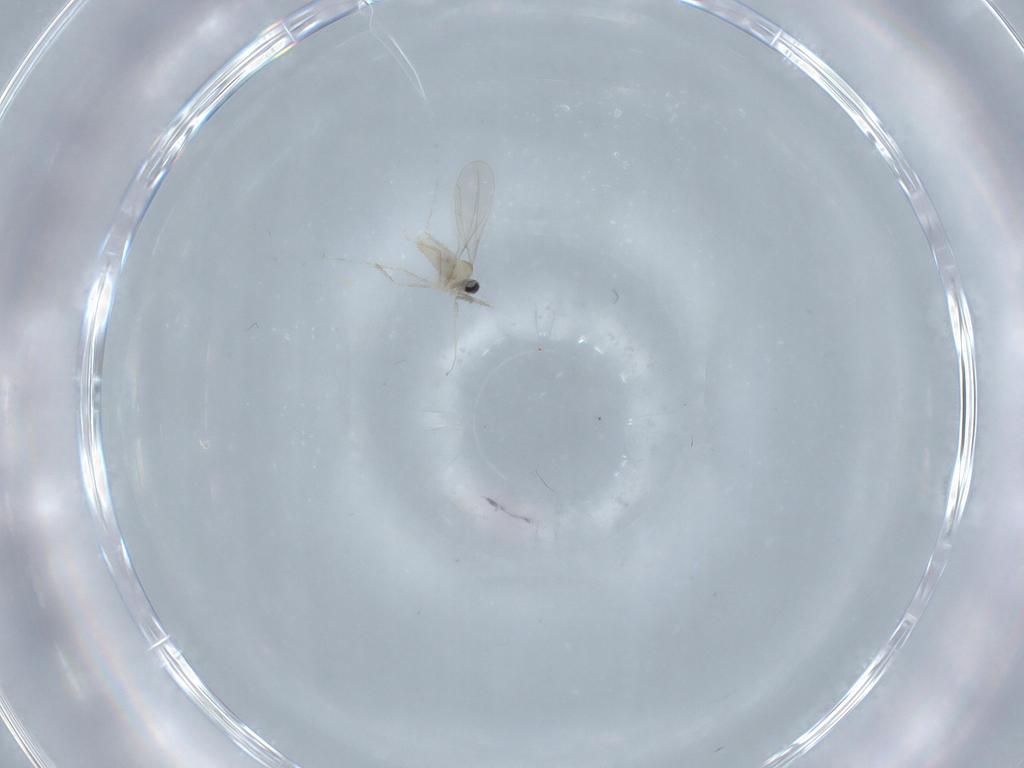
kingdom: Animalia
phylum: Arthropoda
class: Insecta
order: Diptera
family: Cecidomyiidae
